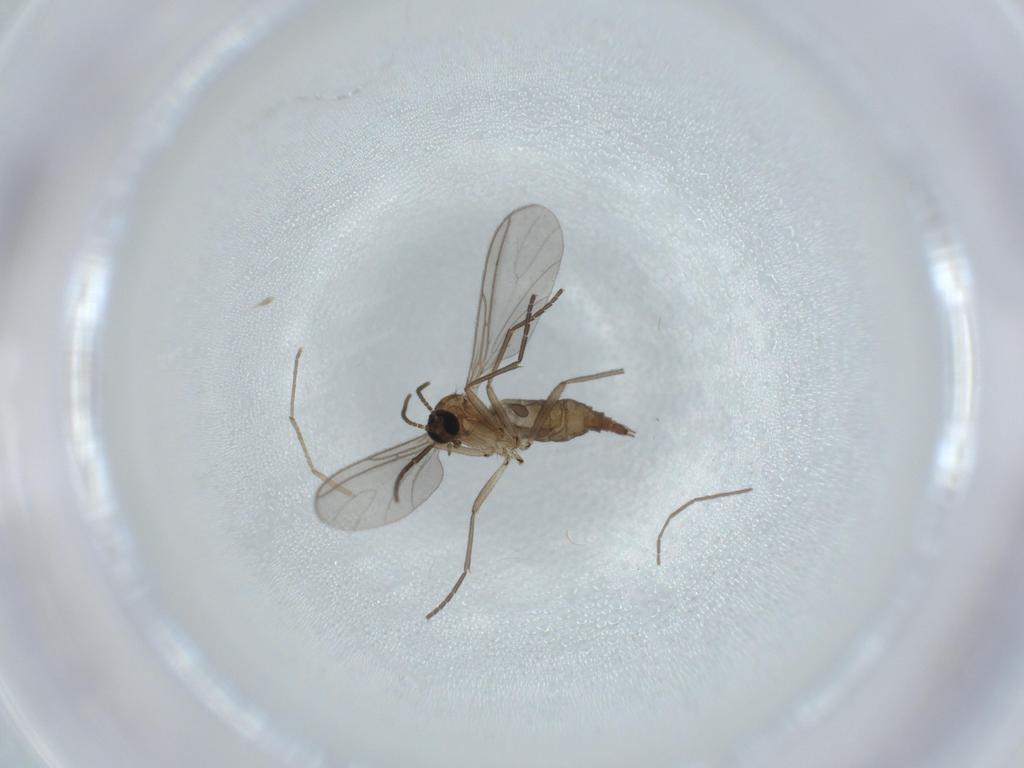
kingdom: Animalia
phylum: Arthropoda
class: Insecta
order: Diptera
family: Chironomidae
